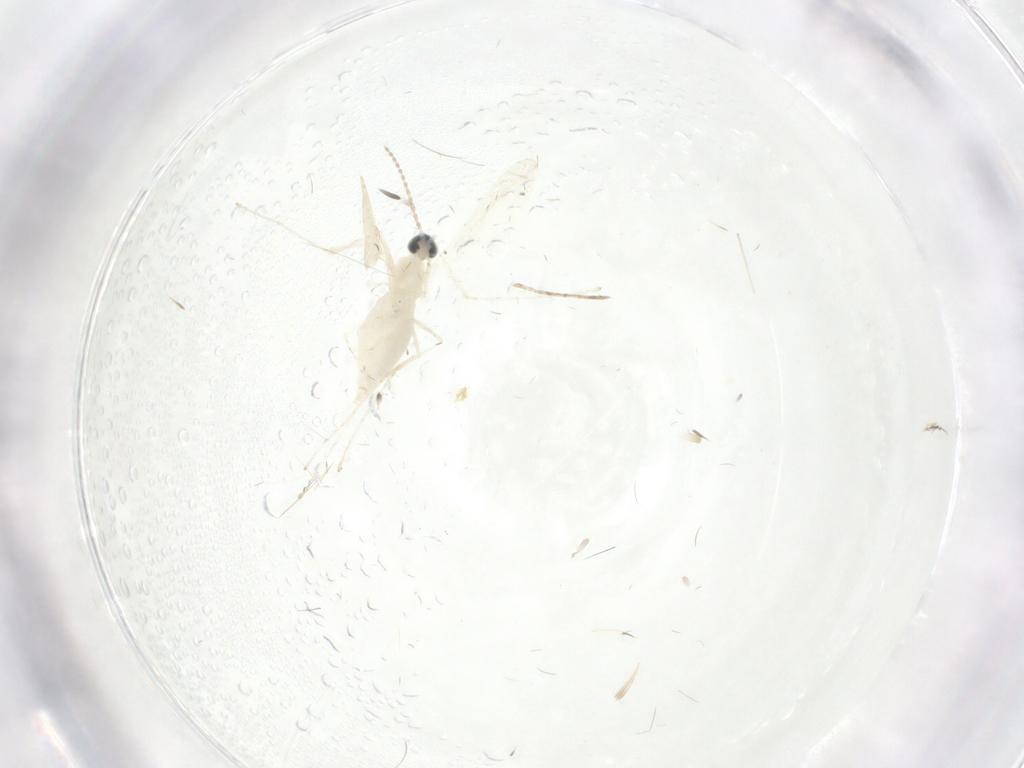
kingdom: Animalia
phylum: Arthropoda
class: Insecta
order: Diptera
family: Cecidomyiidae
